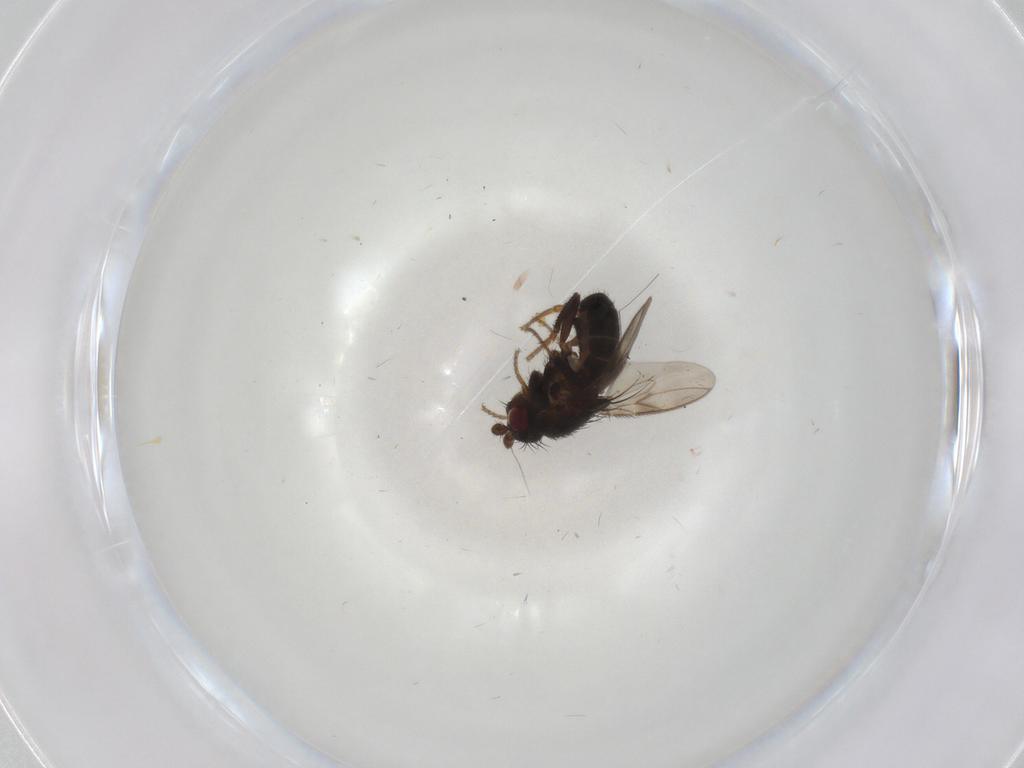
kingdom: Animalia
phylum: Arthropoda
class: Insecta
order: Diptera
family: Sphaeroceridae
